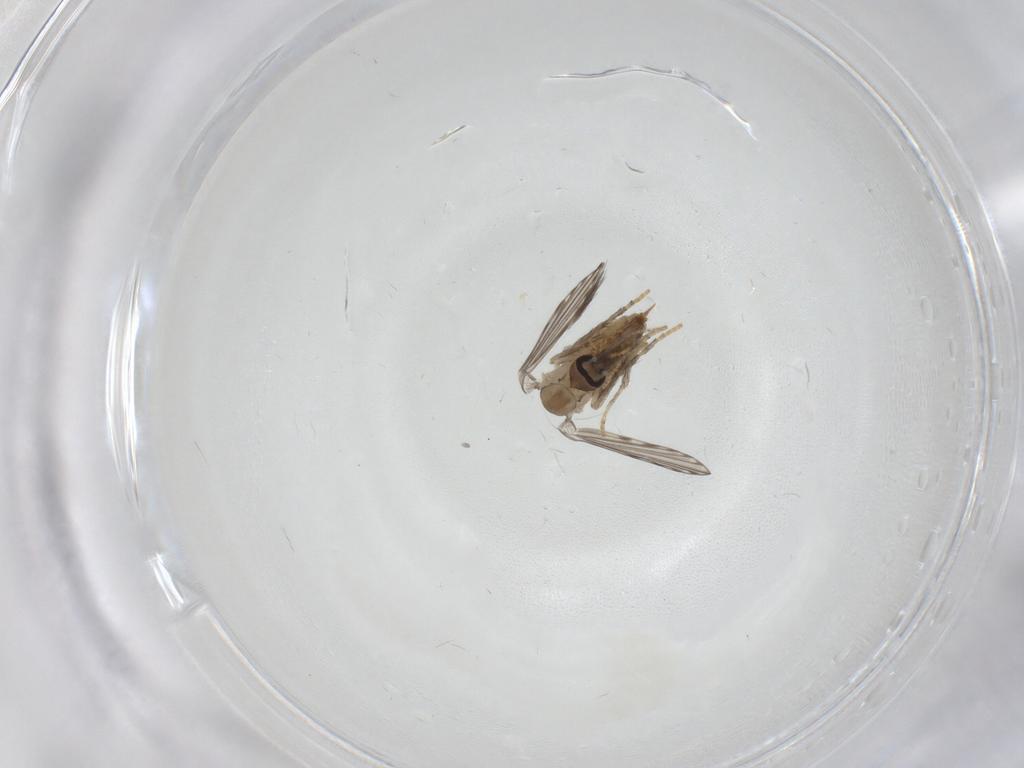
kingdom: Animalia
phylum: Arthropoda
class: Insecta
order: Diptera
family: Psychodidae
